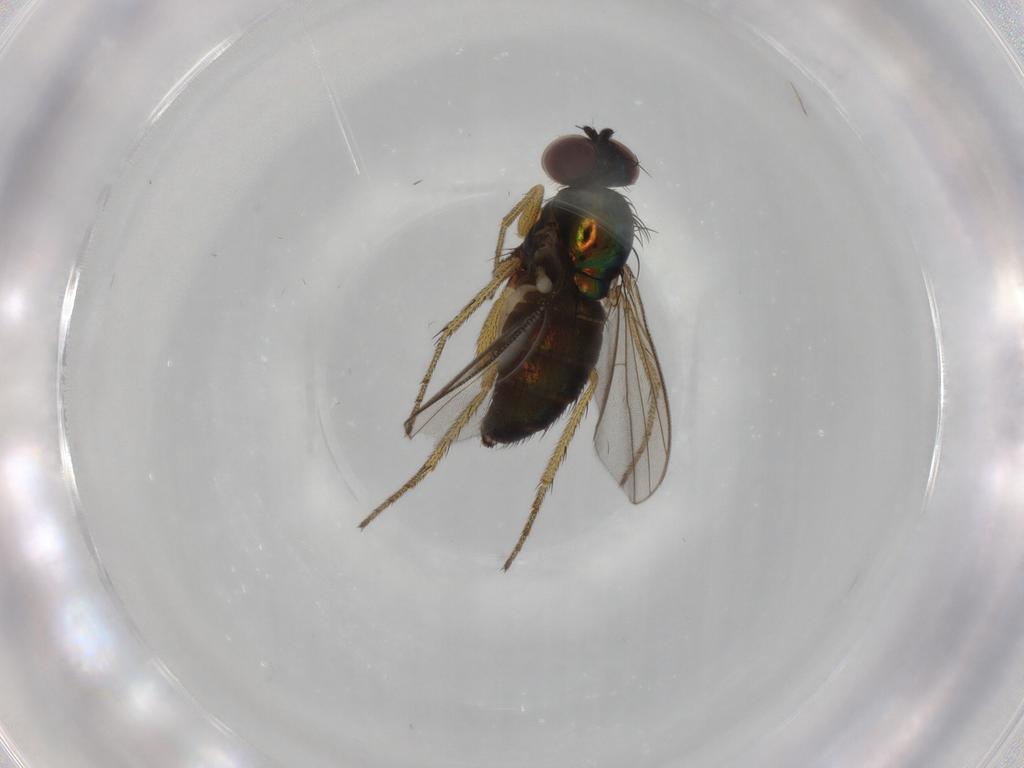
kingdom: Animalia
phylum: Arthropoda
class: Insecta
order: Diptera
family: Dolichopodidae
